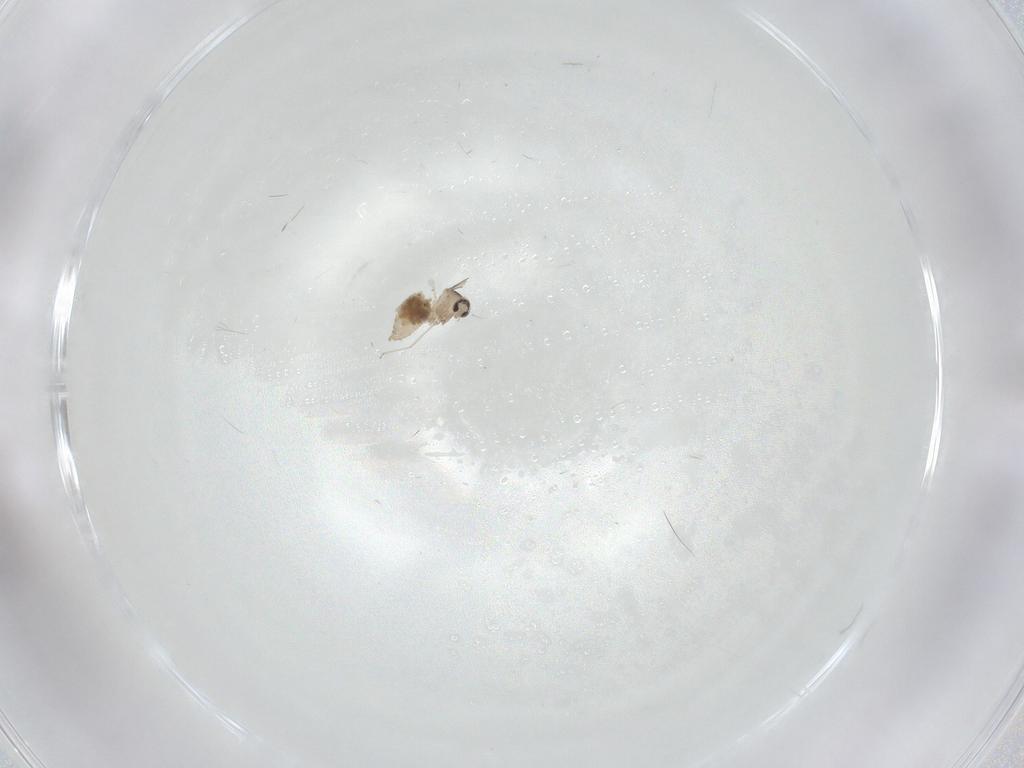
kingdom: Animalia
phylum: Arthropoda
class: Insecta
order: Diptera
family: Cecidomyiidae
